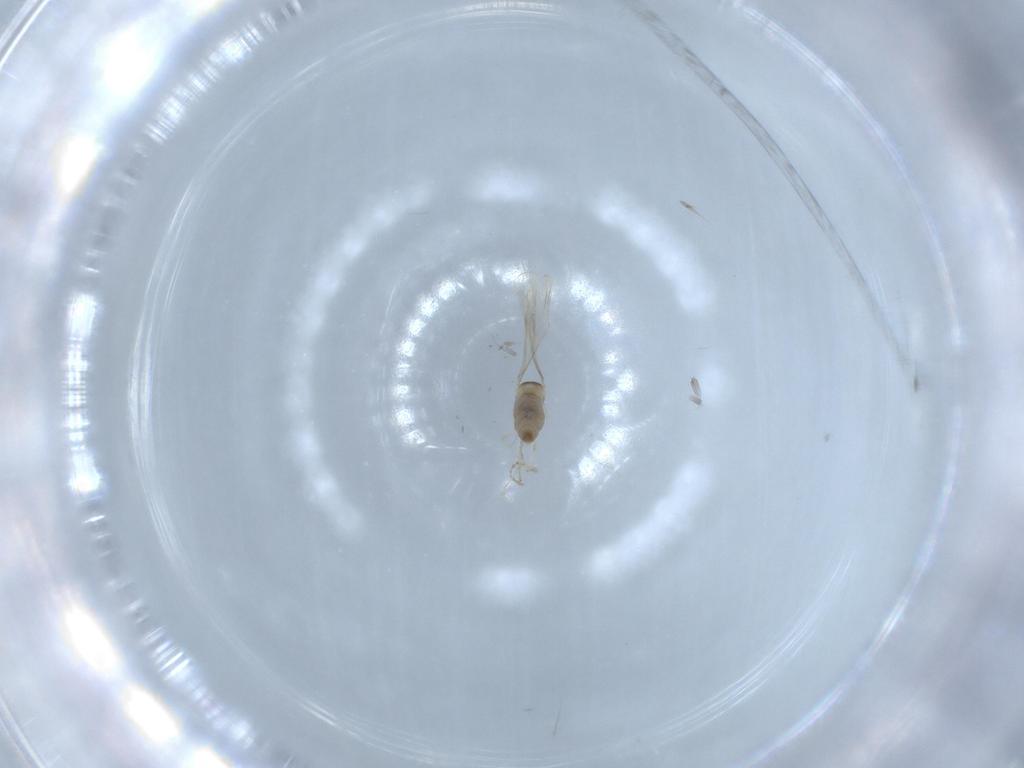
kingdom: Animalia
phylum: Arthropoda
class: Insecta
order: Diptera
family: Cecidomyiidae
